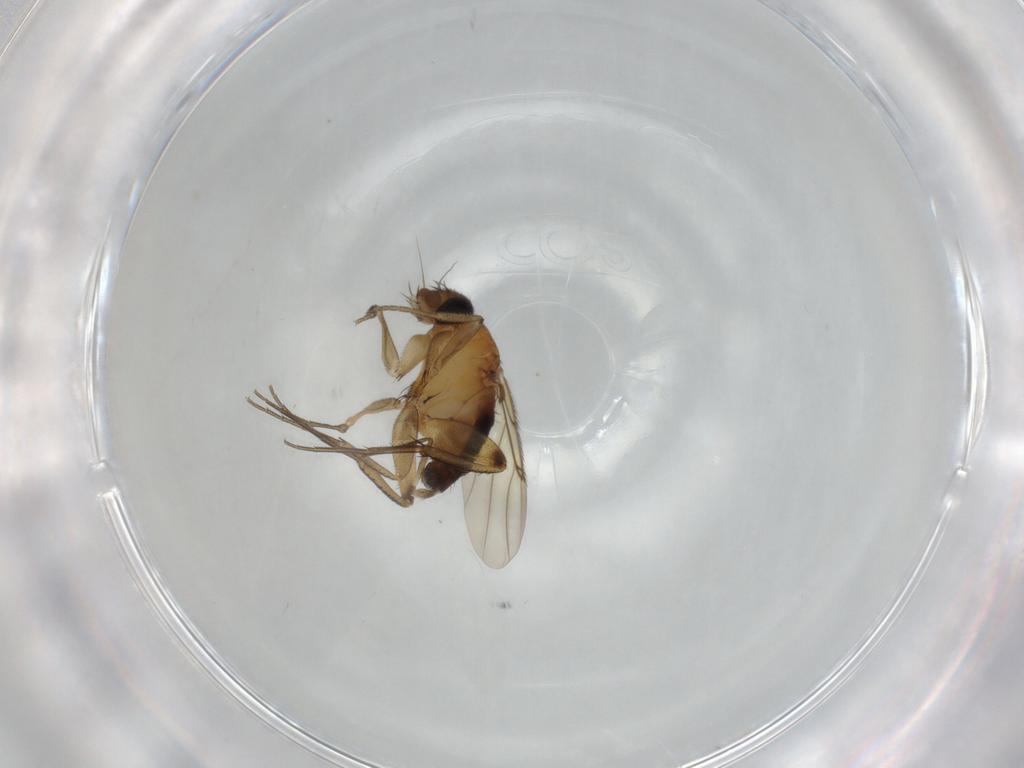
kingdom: Animalia
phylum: Arthropoda
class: Insecta
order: Diptera
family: Phoridae
